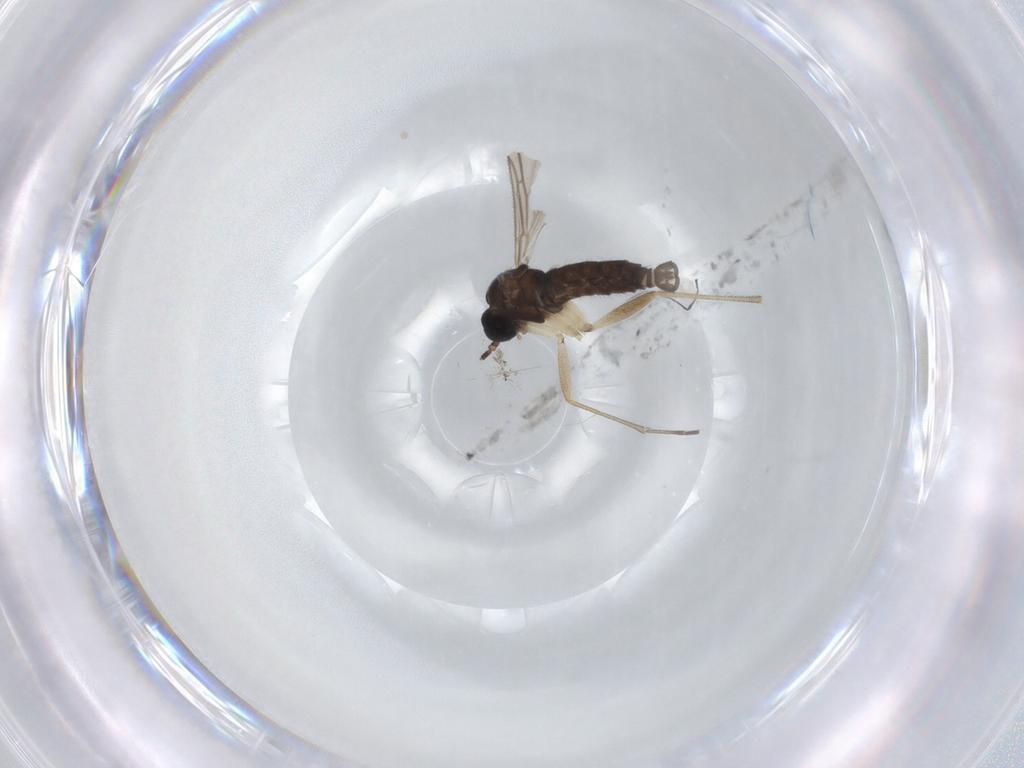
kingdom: Animalia
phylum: Arthropoda
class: Insecta
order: Diptera
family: Sciaridae
